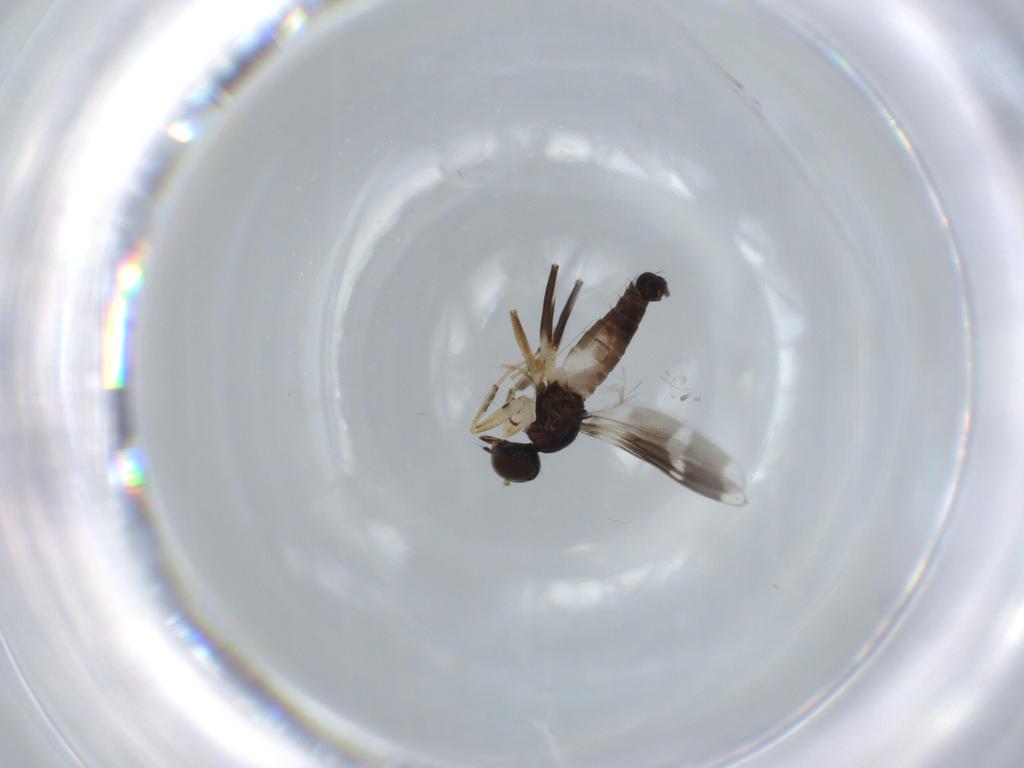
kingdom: Animalia
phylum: Arthropoda
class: Insecta
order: Diptera
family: Hybotidae
